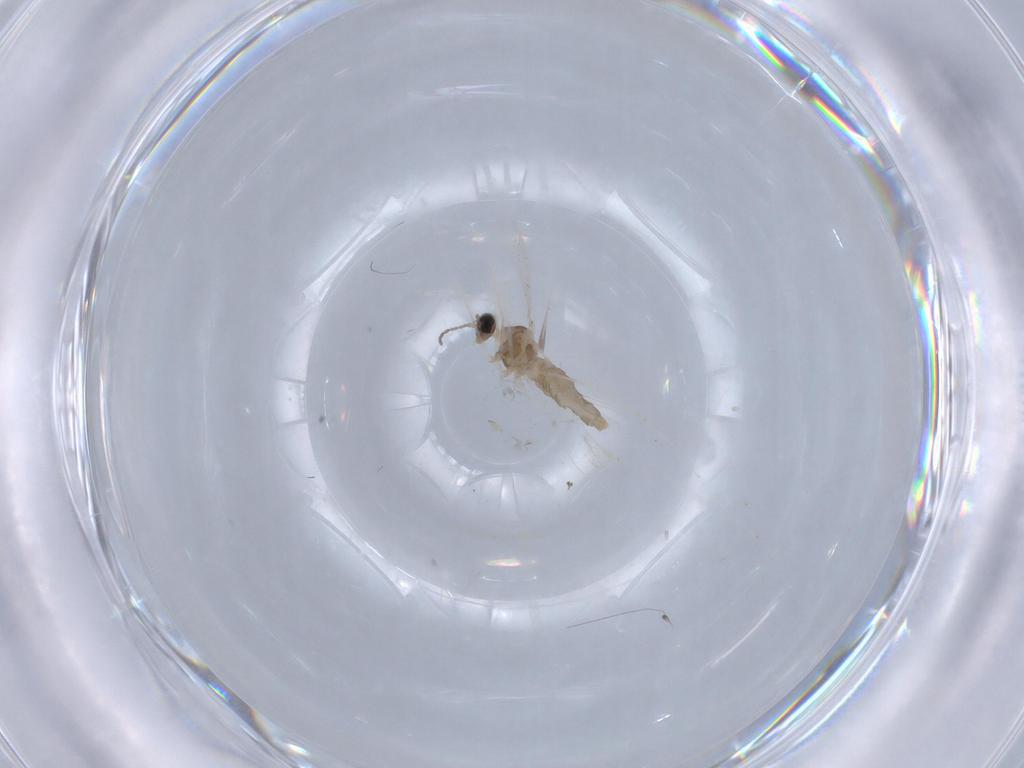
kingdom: Animalia
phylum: Arthropoda
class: Insecta
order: Diptera
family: Cecidomyiidae
